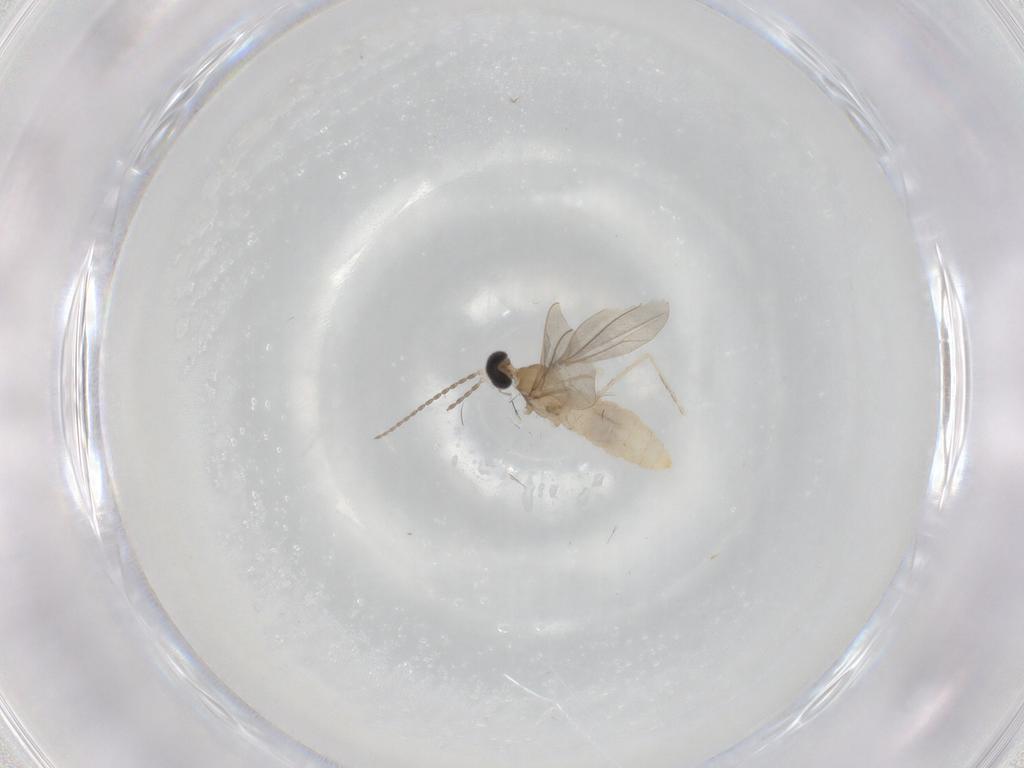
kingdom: Animalia
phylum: Arthropoda
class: Insecta
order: Diptera
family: Cecidomyiidae
